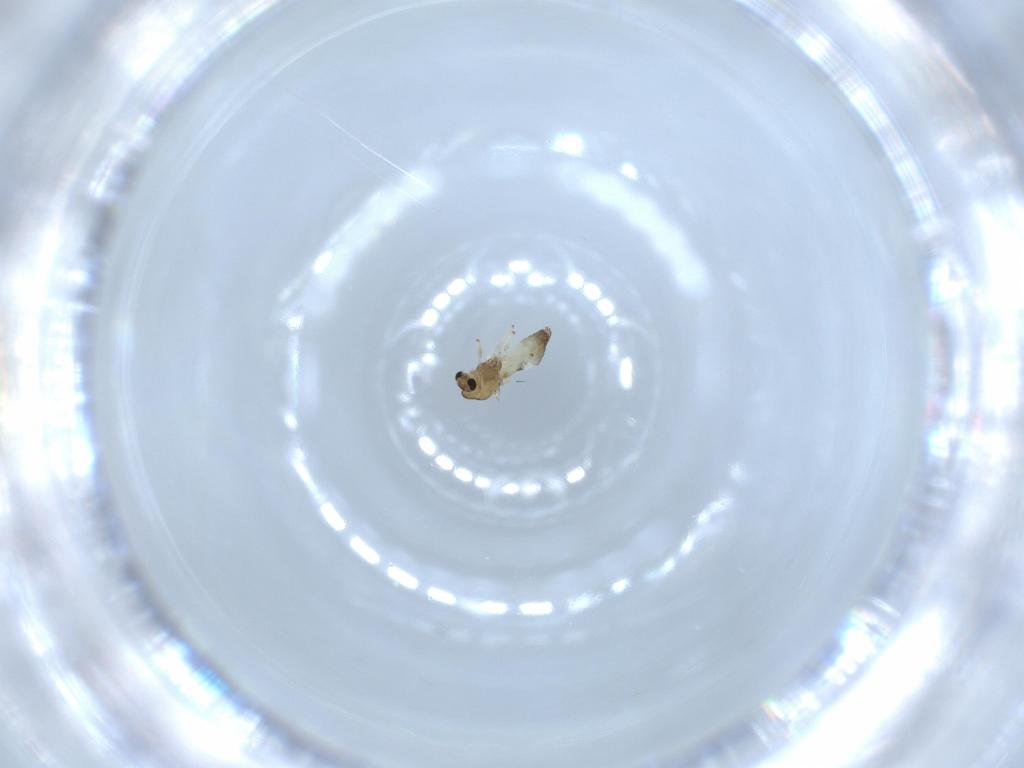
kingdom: Animalia
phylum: Arthropoda
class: Insecta
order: Diptera
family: Chironomidae
